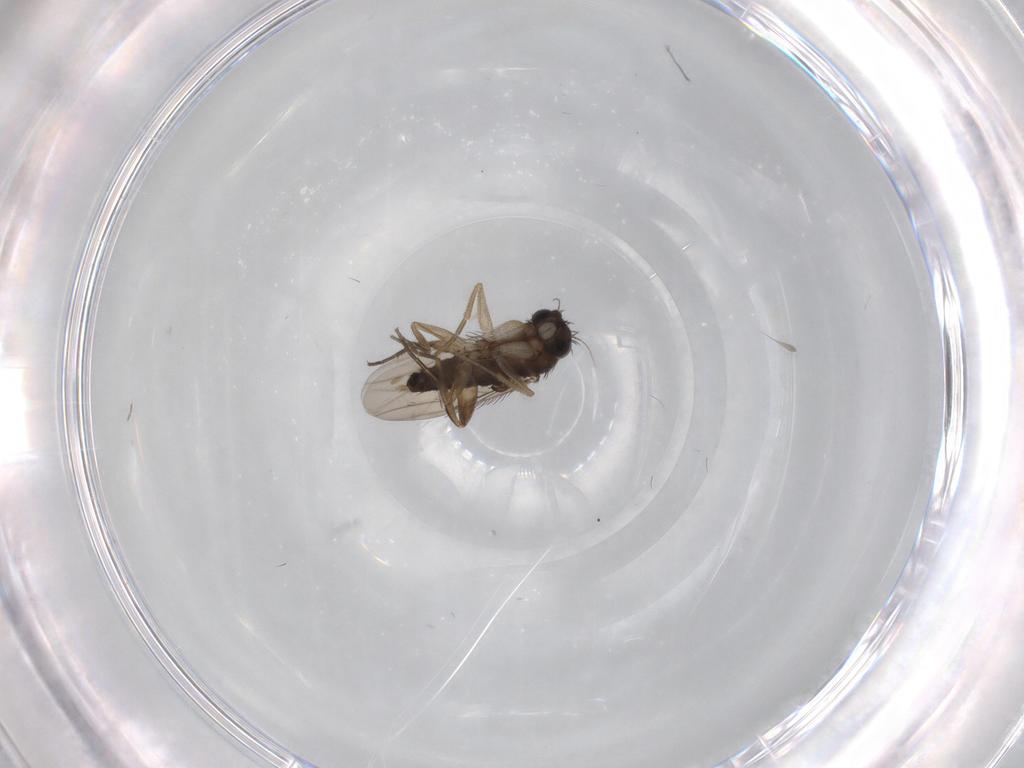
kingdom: Animalia
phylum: Arthropoda
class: Insecta
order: Diptera
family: Phoridae
